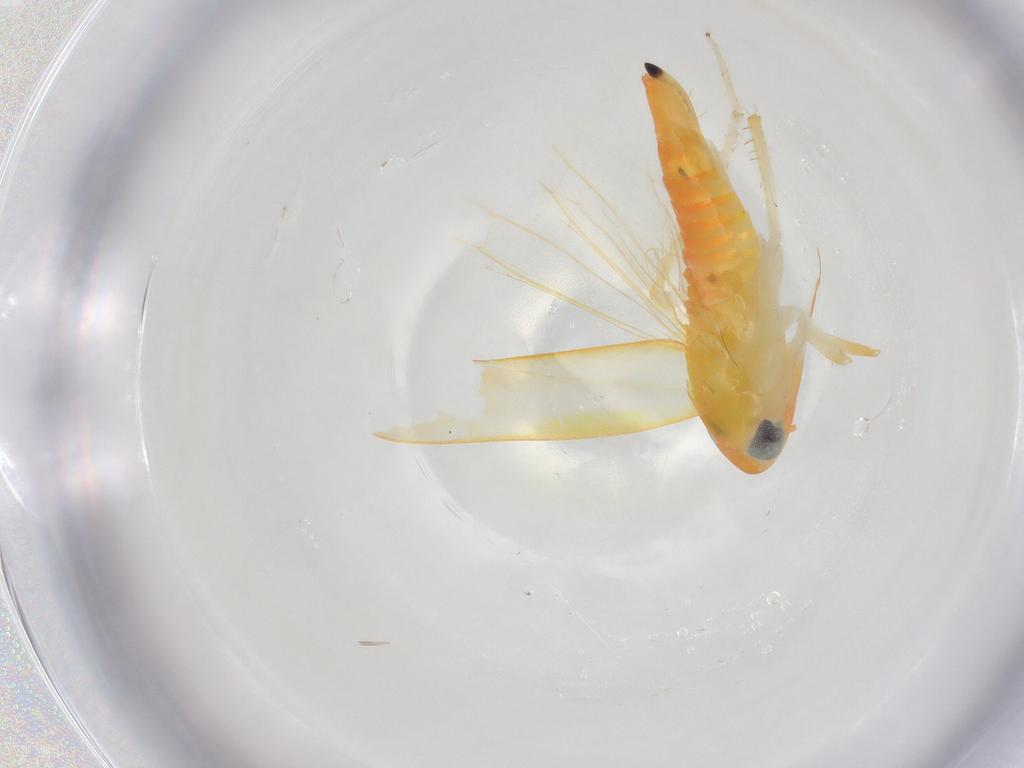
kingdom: Animalia
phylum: Arthropoda
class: Insecta
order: Hemiptera
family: Cicadellidae
